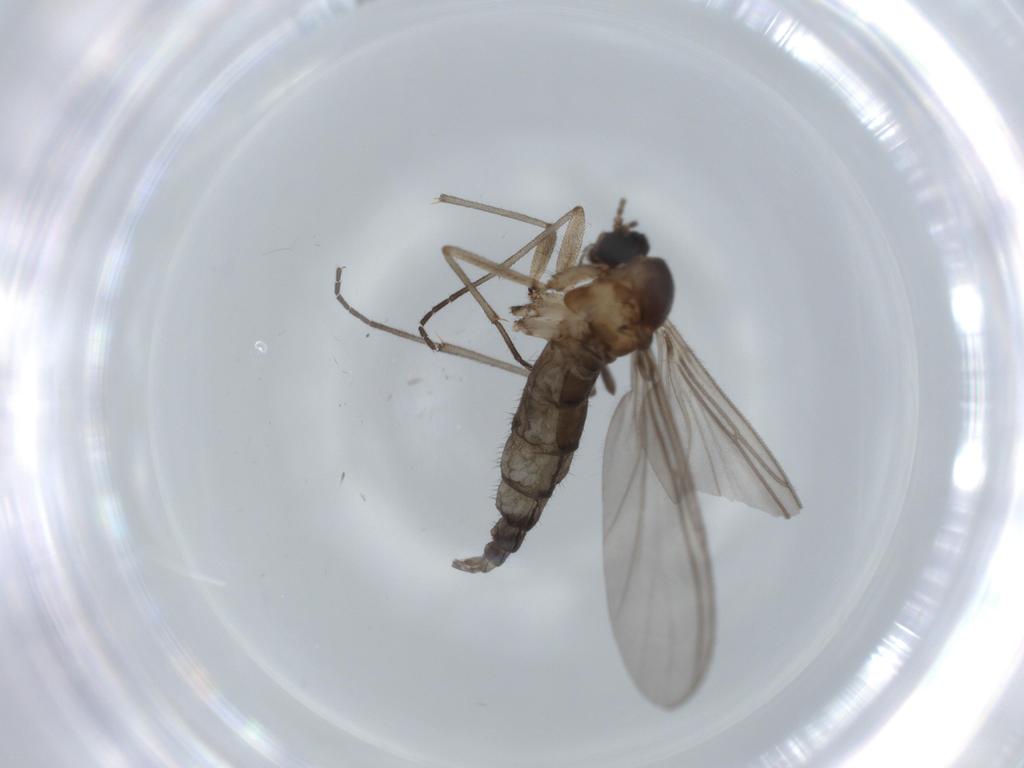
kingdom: Animalia
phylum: Arthropoda
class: Insecta
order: Diptera
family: Sciaridae
